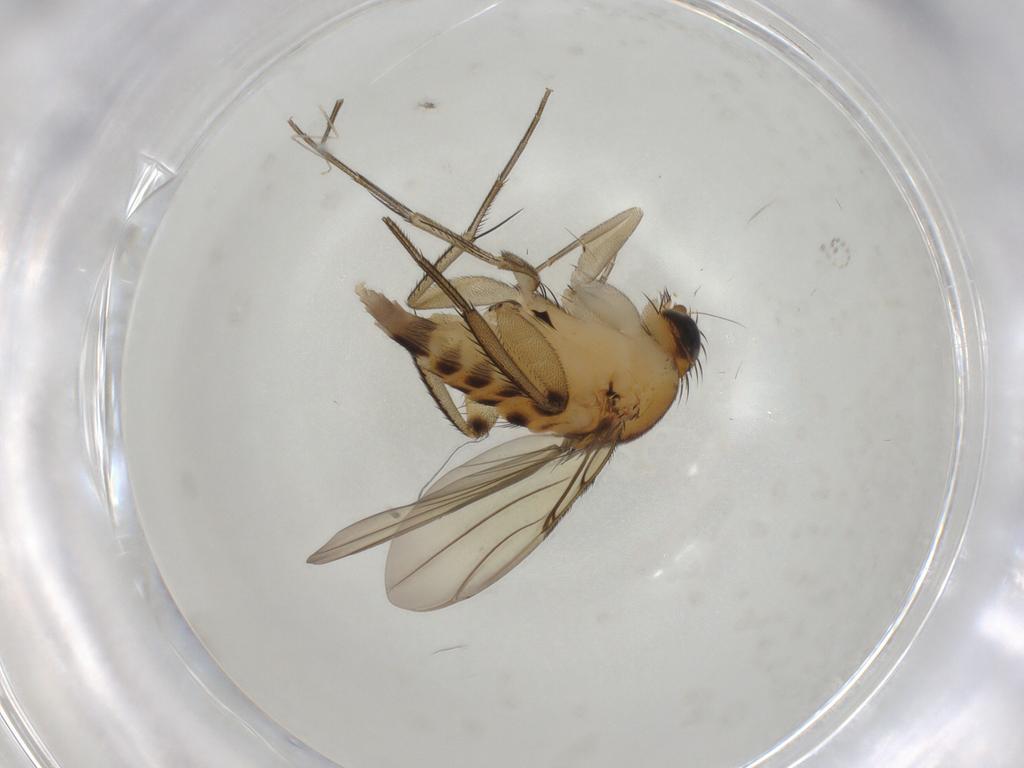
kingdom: Animalia
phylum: Arthropoda
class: Insecta
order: Diptera
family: Phoridae
